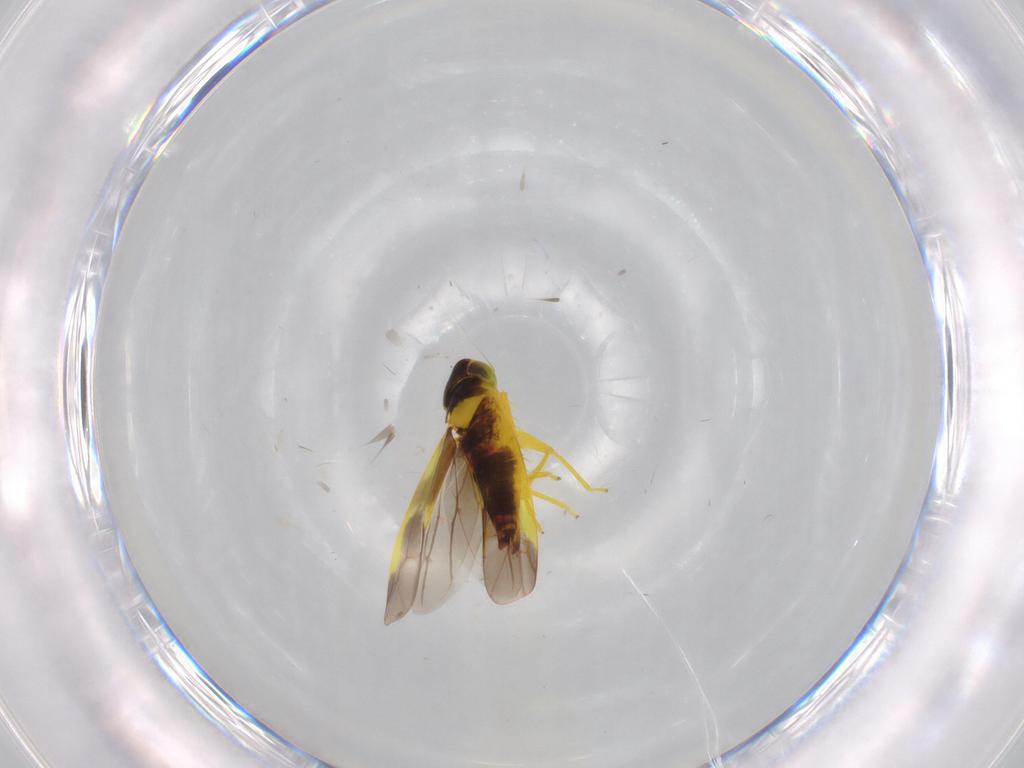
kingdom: Animalia
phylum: Arthropoda
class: Insecta
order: Hemiptera
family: Cicadellidae
